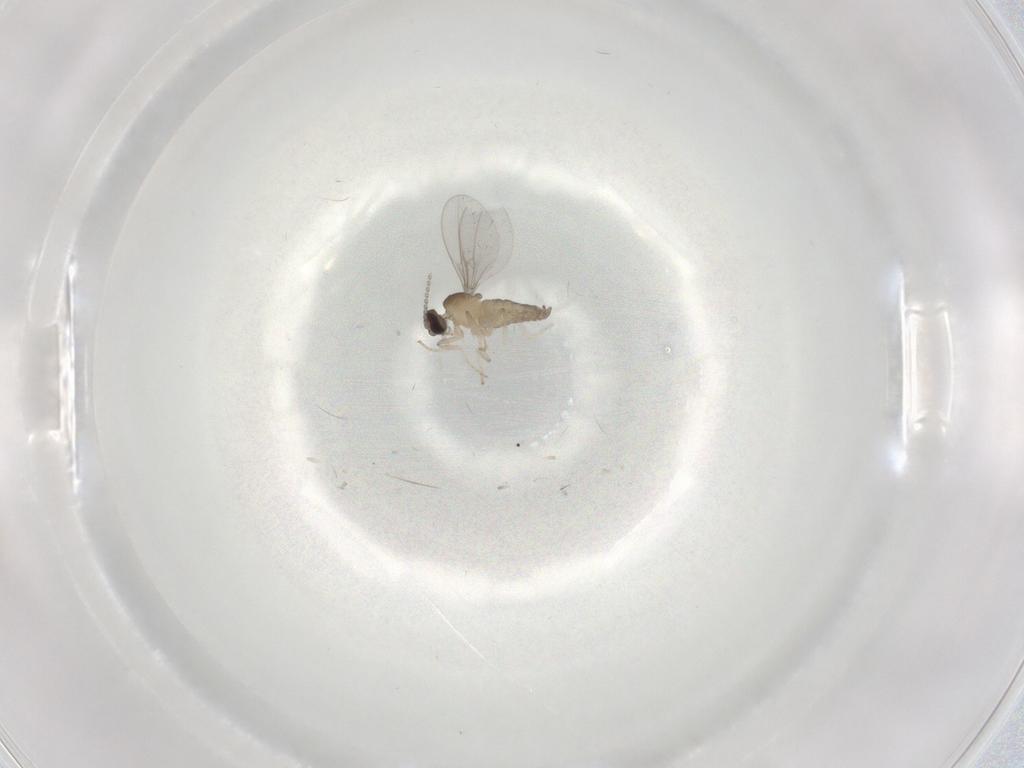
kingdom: Animalia
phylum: Arthropoda
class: Insecta
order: Diptera
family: Cecidomyiidae
